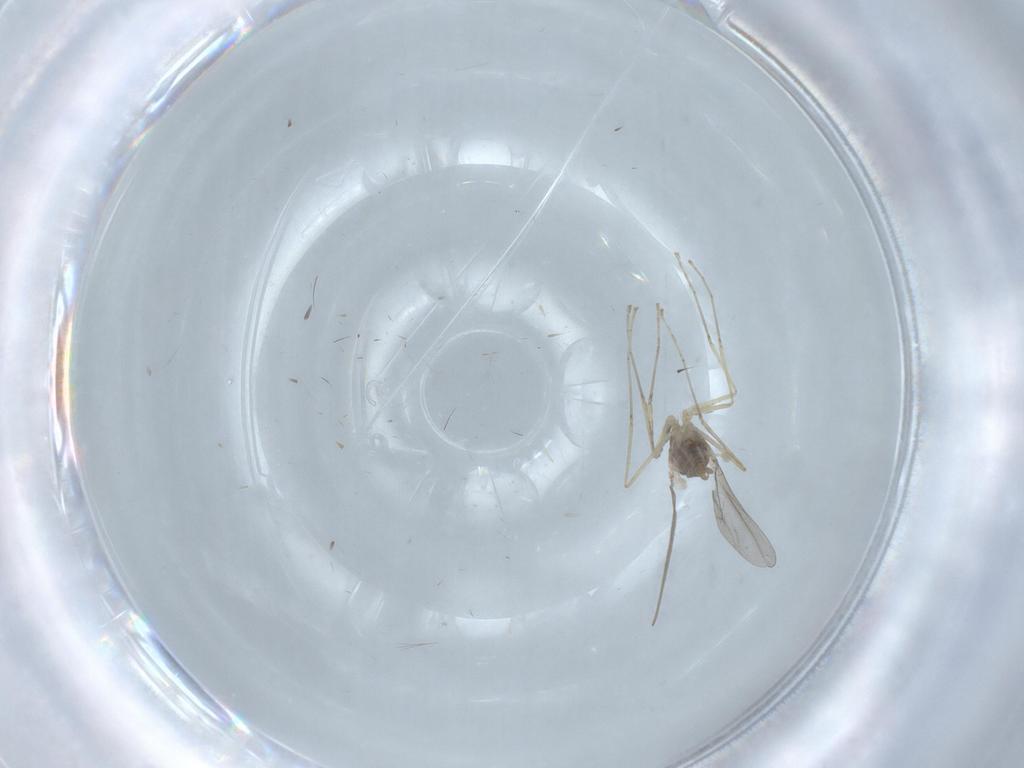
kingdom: Animalia
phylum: Arthropoda
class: Insecta
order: Diptera
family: Cecidomyiidae
